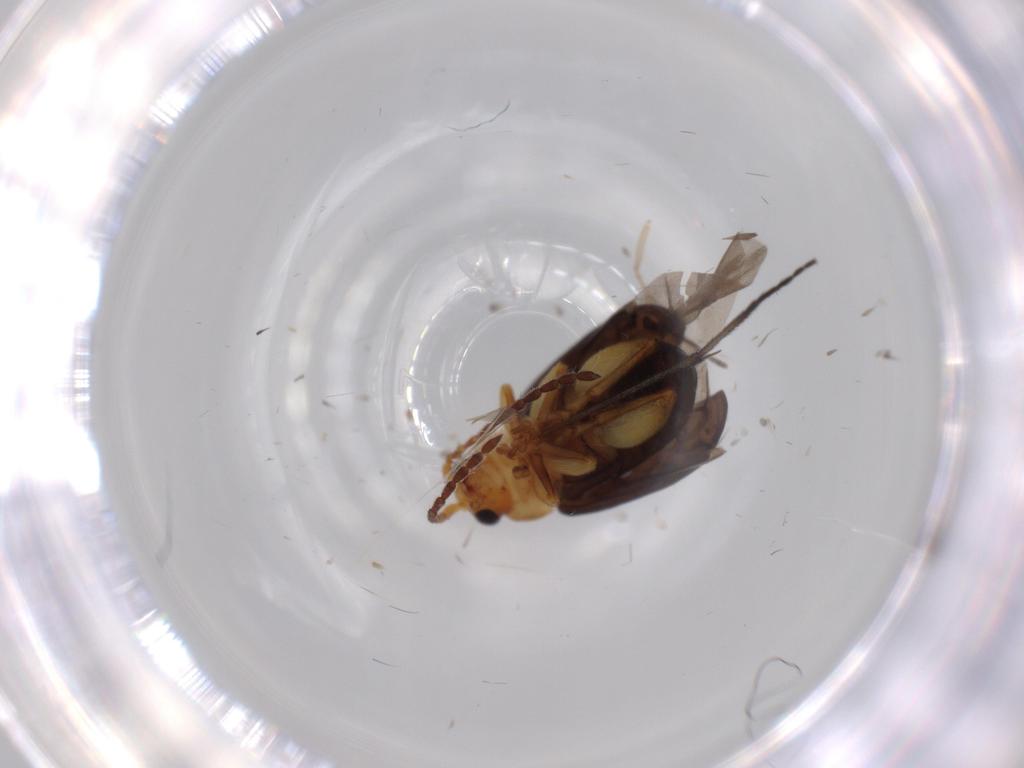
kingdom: Animalia
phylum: Arthropoda
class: Insecta
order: Coleoptera
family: Chrysomelidae
